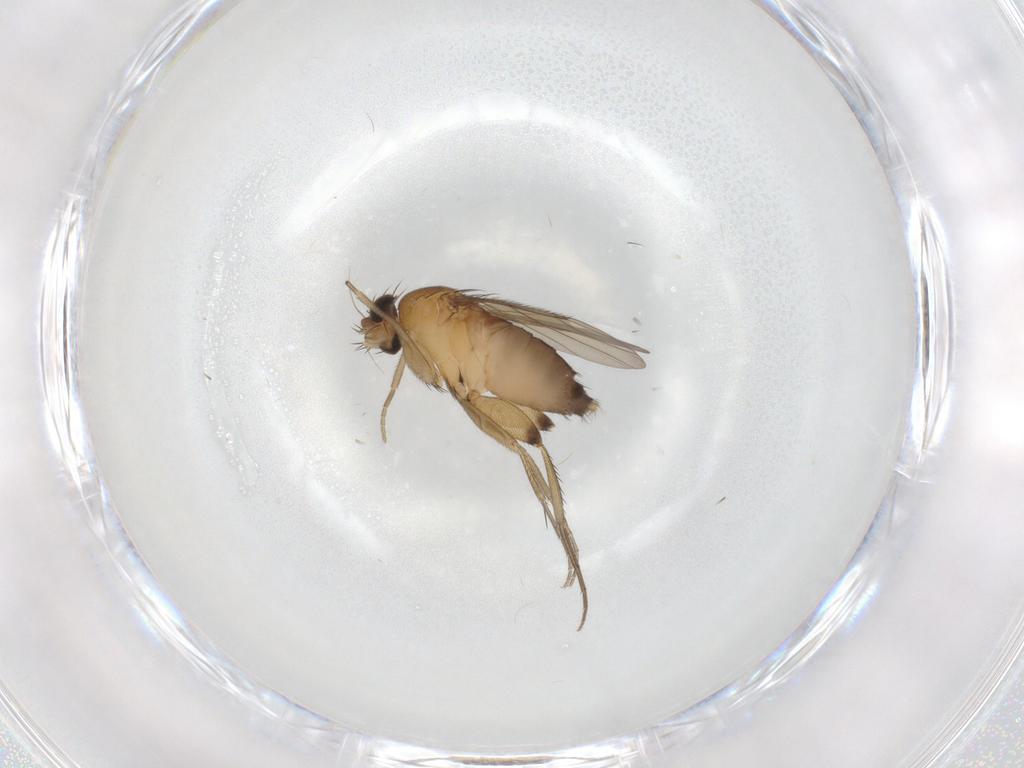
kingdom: Animalia
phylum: Arthropoda
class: Insecta
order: Diptera
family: Phoridae
